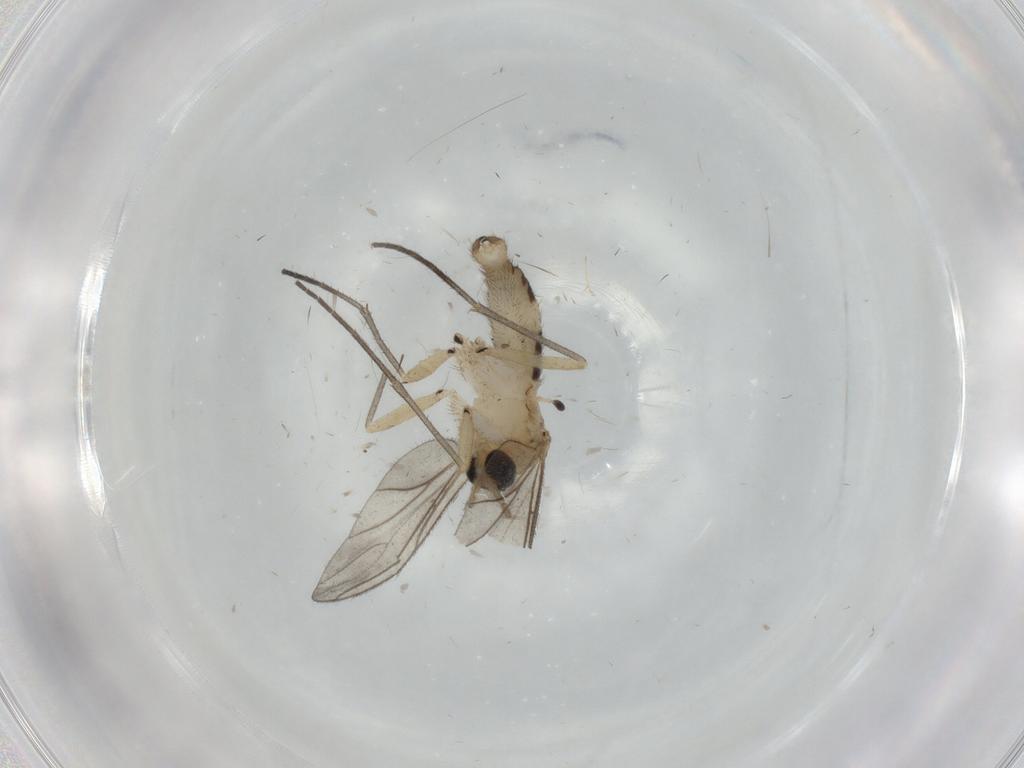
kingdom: Animalia
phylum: Arthropoda
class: Insecta
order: Diptera
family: Sciaridae
